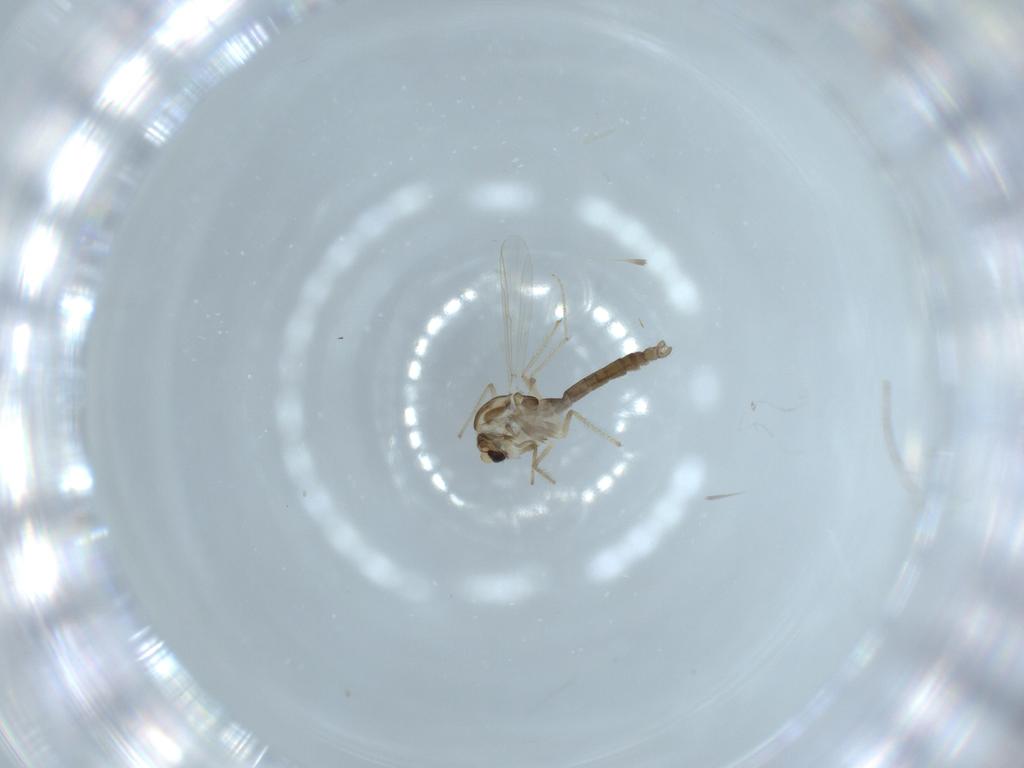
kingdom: Animalia
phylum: Arthropoda
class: Insecta
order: Diptera
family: Chironomidae
